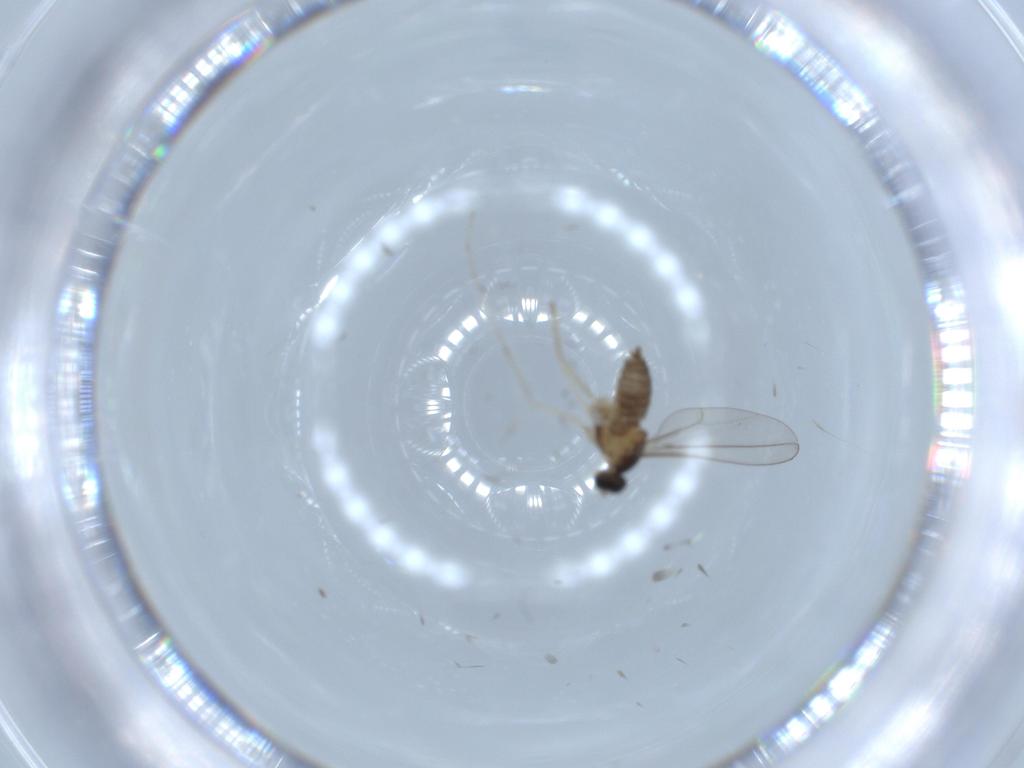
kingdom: Animalia
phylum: Arthropoda
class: Insecta
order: Diptera
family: Cecidomyiidae
